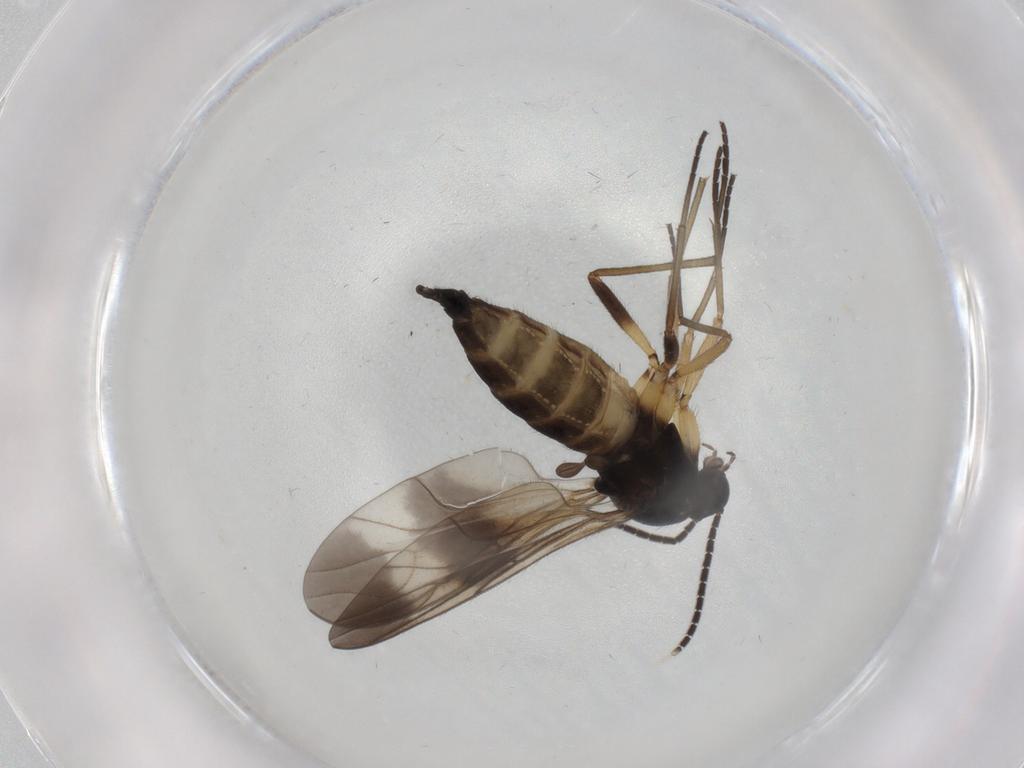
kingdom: Animalia
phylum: Arthropoda
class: Insecta
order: Diptera
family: Sciaridae
